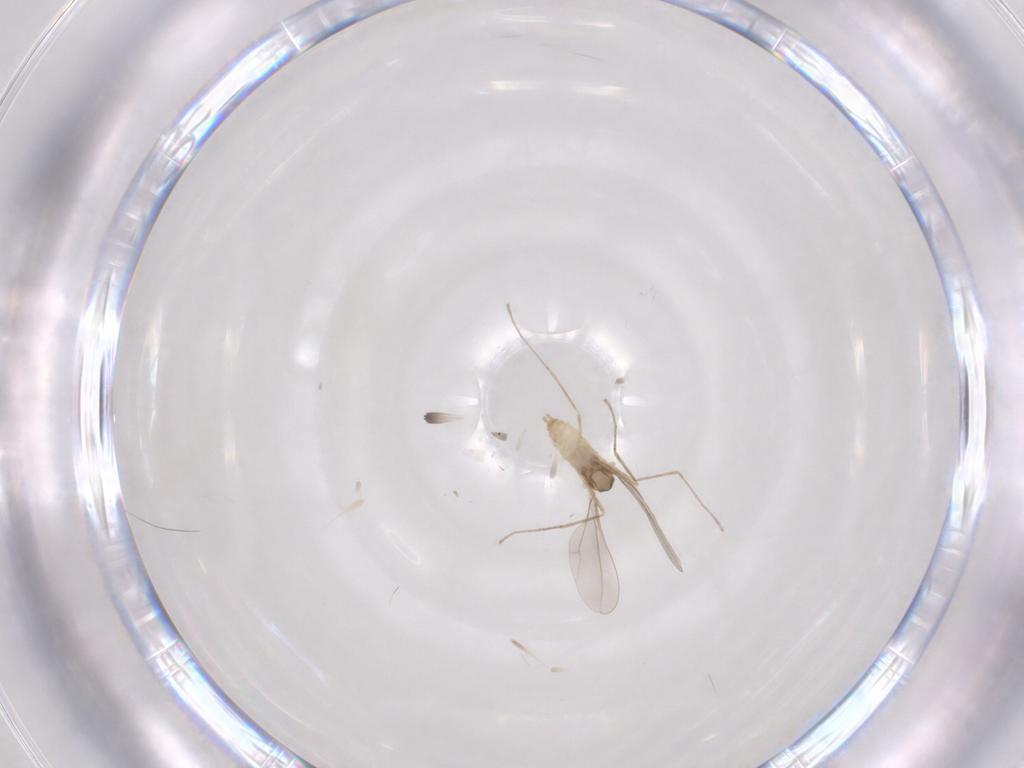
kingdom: Animalia
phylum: Arthropoda
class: Insecta
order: Diptera
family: Cecidomyiidae
